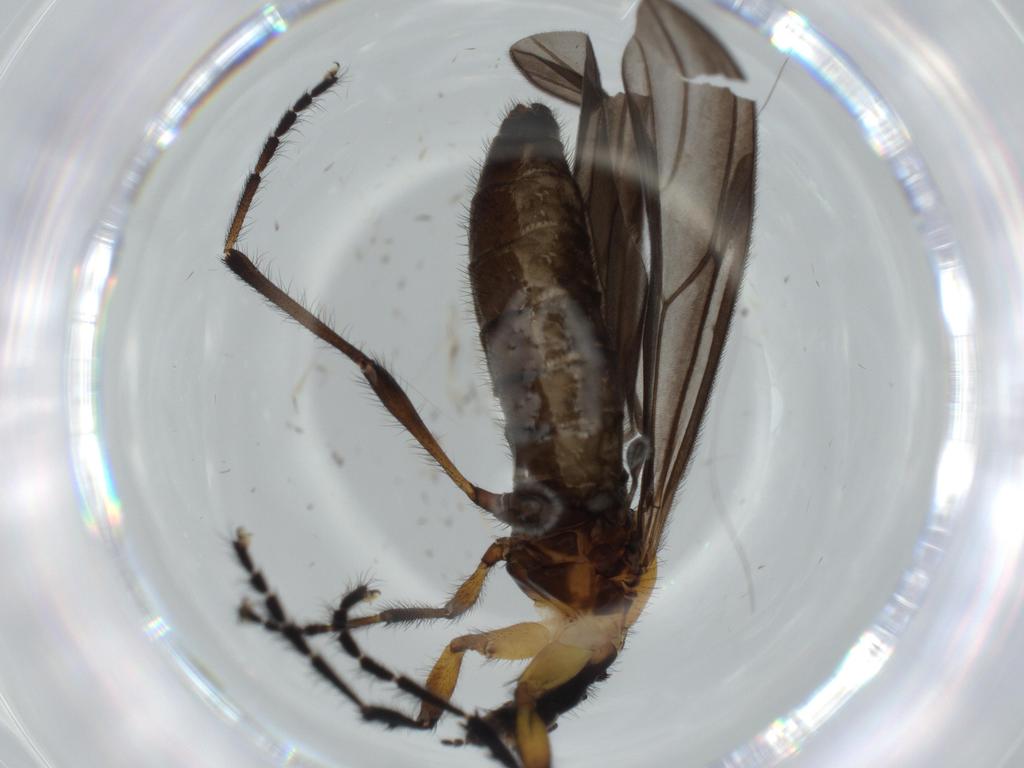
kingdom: Animalia
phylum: Arthropoda
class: Insecta
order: Diptera
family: Bibionidae
